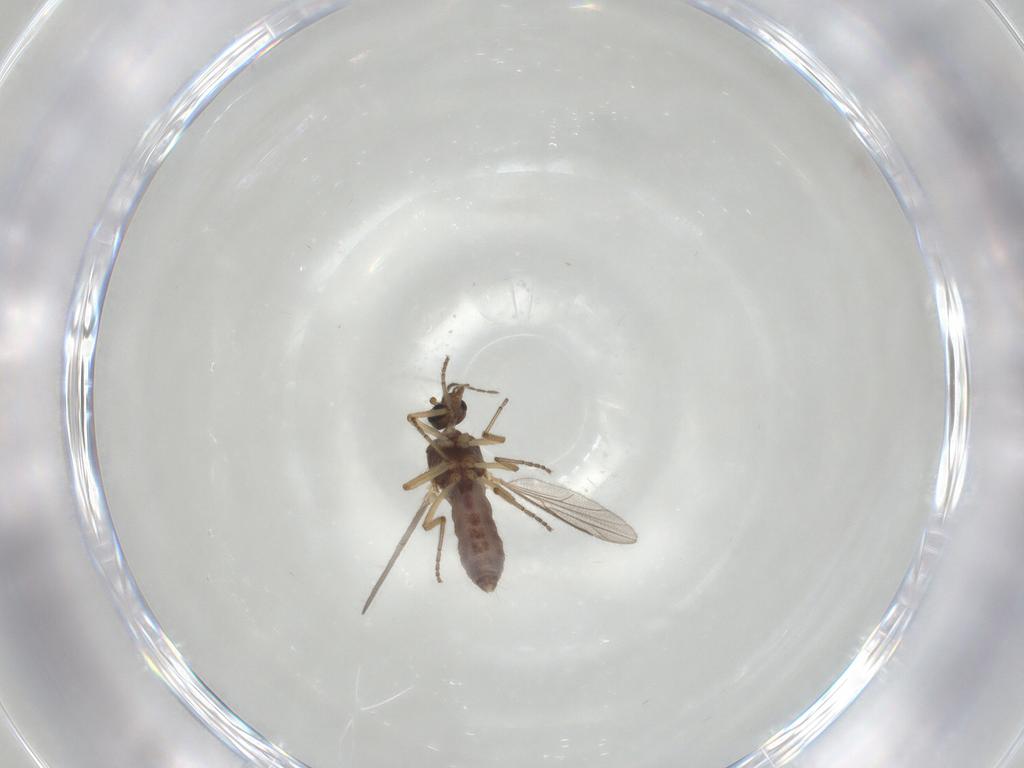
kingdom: Animalia
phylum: Arthropoda
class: Insecta
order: Diptera
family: Ceratopogonidae
